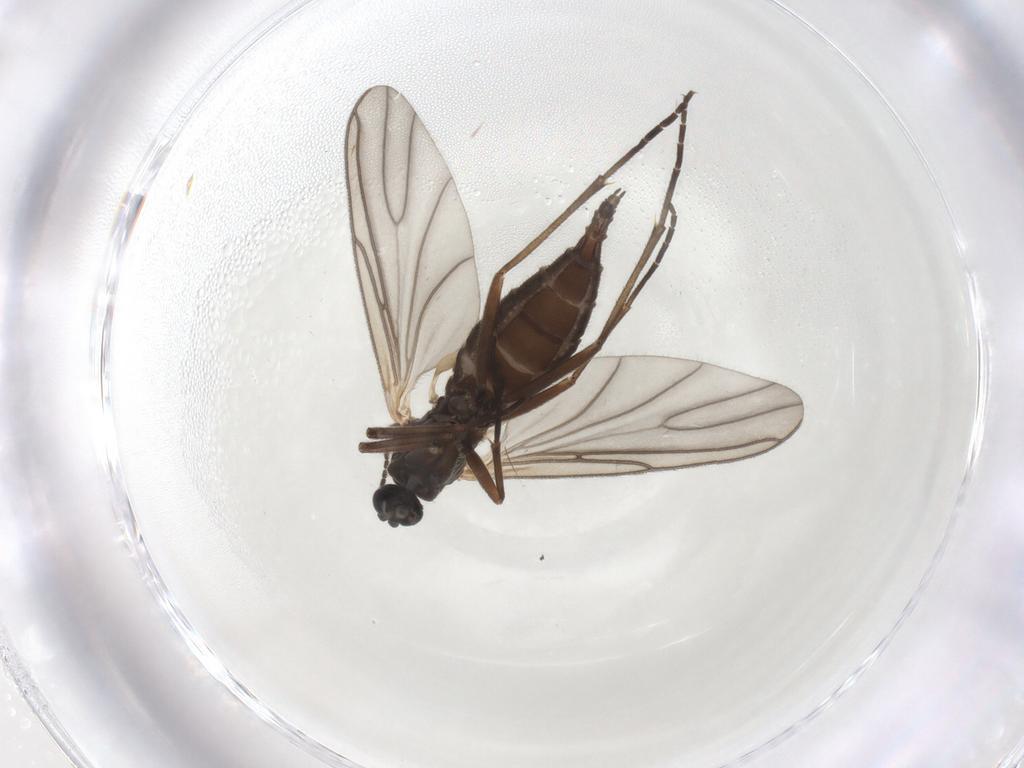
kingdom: Animalia
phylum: Arthropoda
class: Insecta
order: Diptera
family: Sciaridae
